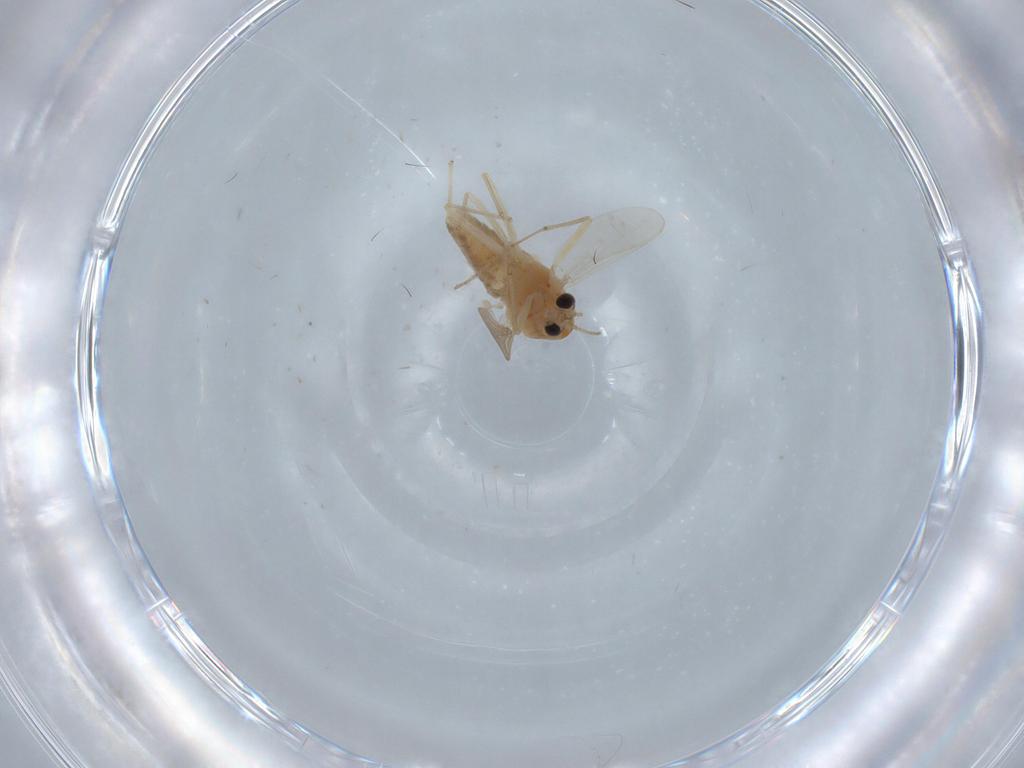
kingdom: Animalia
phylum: Arthropoda
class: Insecta
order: Diptera
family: Chironomidae
